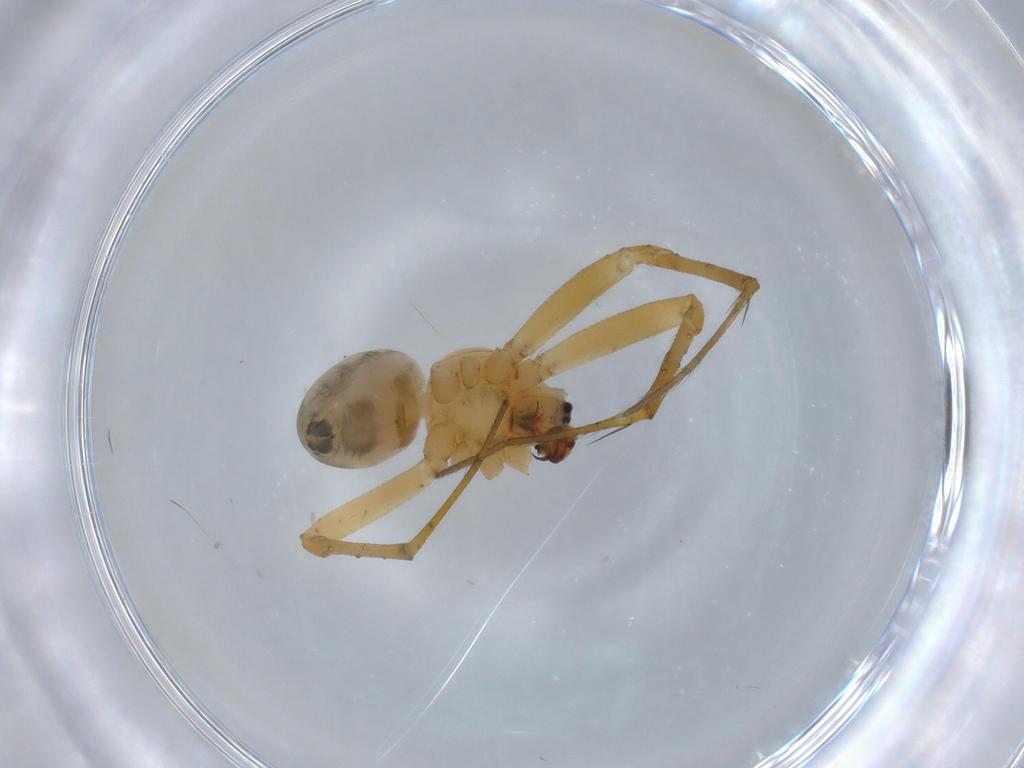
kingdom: Animalia
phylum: Arthropoda
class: Arachnida
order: Araneae
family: Araneidae
